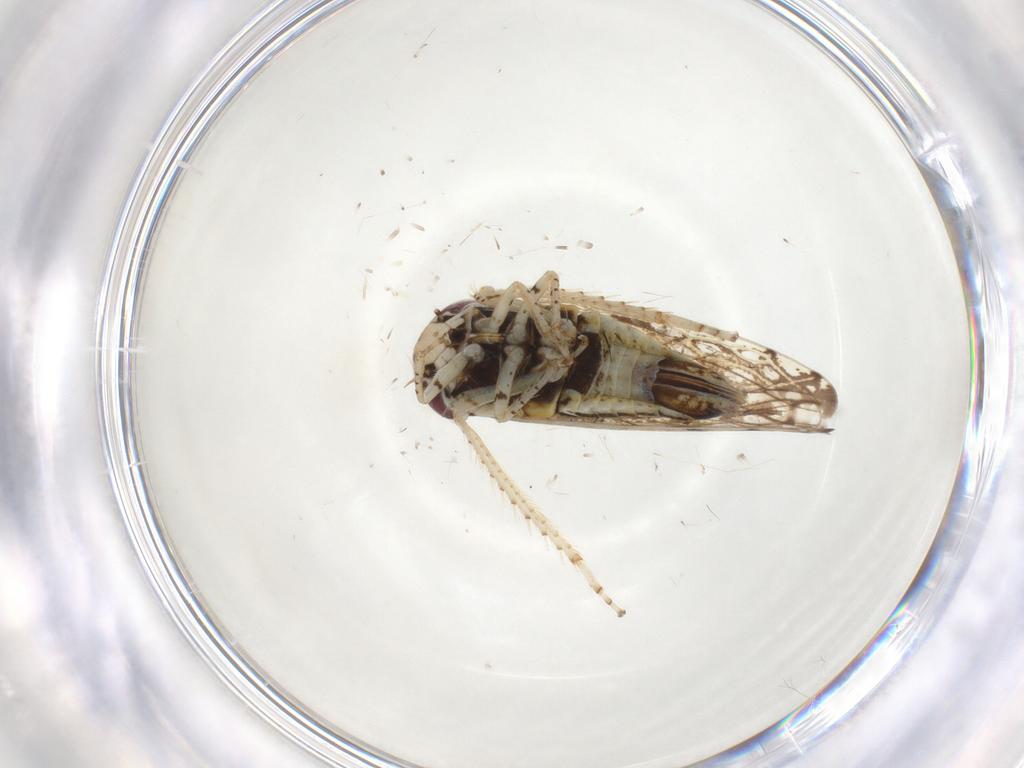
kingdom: Animalia
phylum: Arthropoda
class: Insecta
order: Hemiptera
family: Cicadellidae
